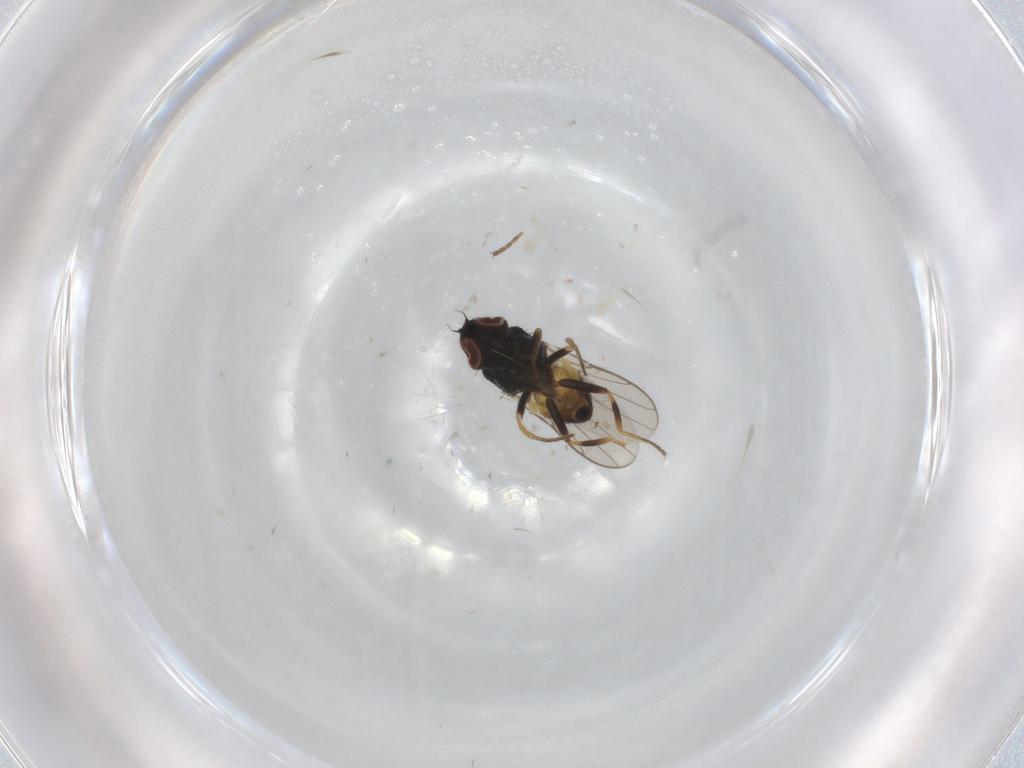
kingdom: Animalia
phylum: Arthropoda
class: Insecta
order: Diptera
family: Chloropidae
